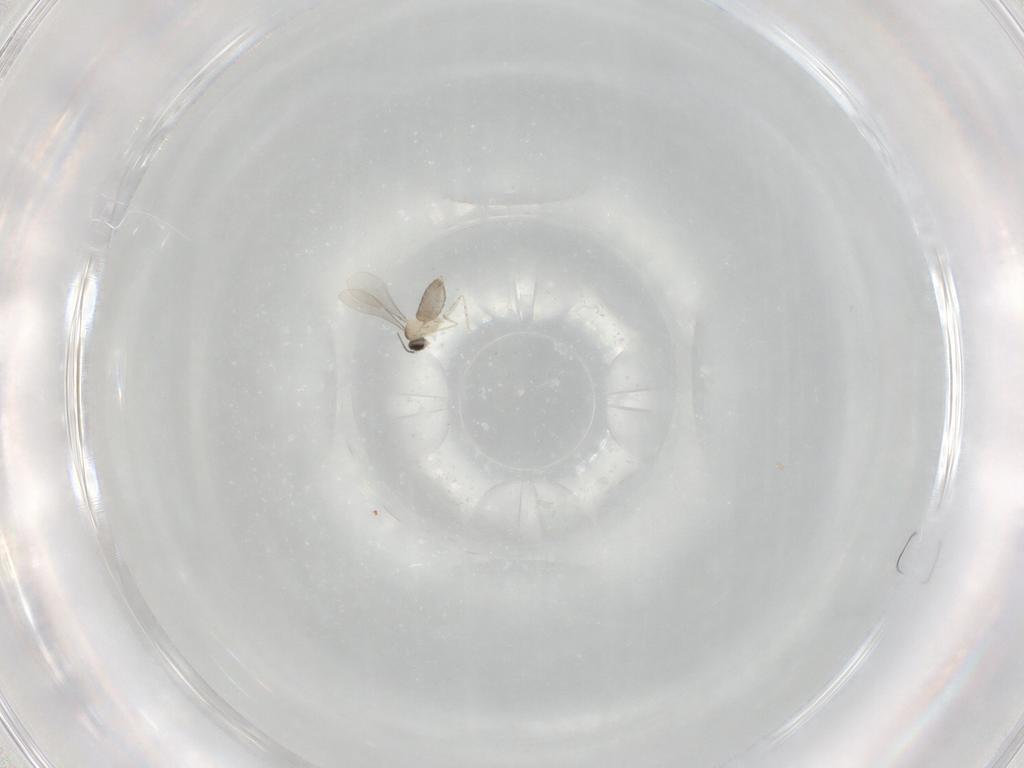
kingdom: Animalia
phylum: Arthropoda
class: Insecta
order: Diptera
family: Cecidomyiidae
